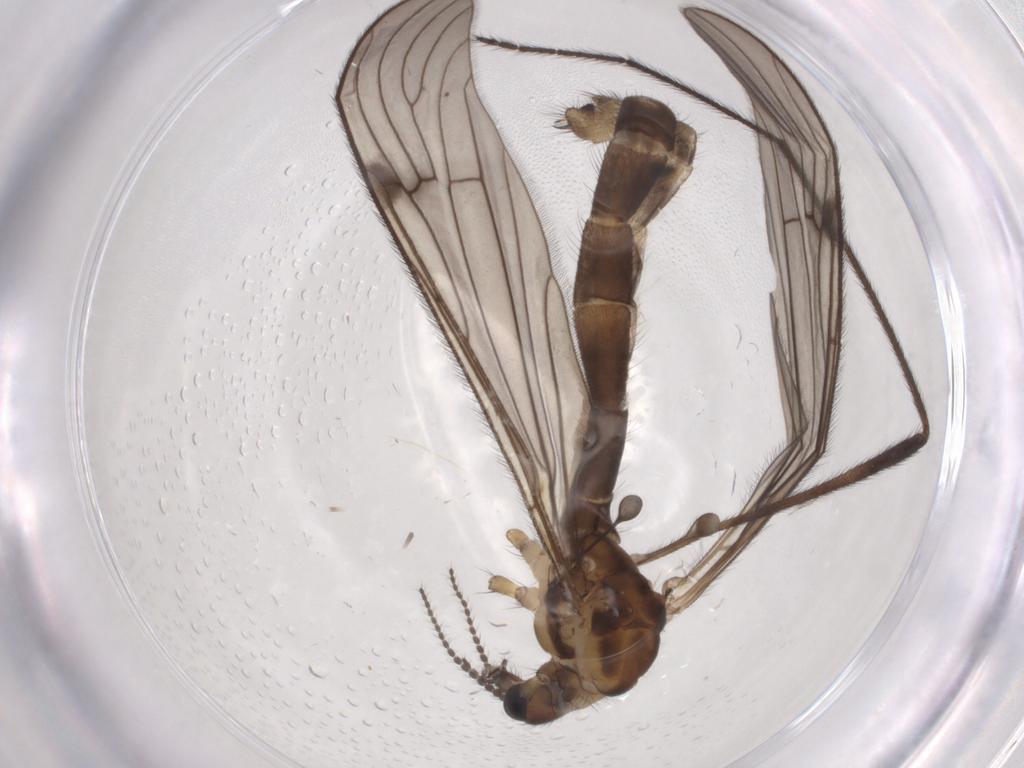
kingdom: Animalia
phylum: Arthropoda
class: Insecta
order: Diptera
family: Limoniidae
